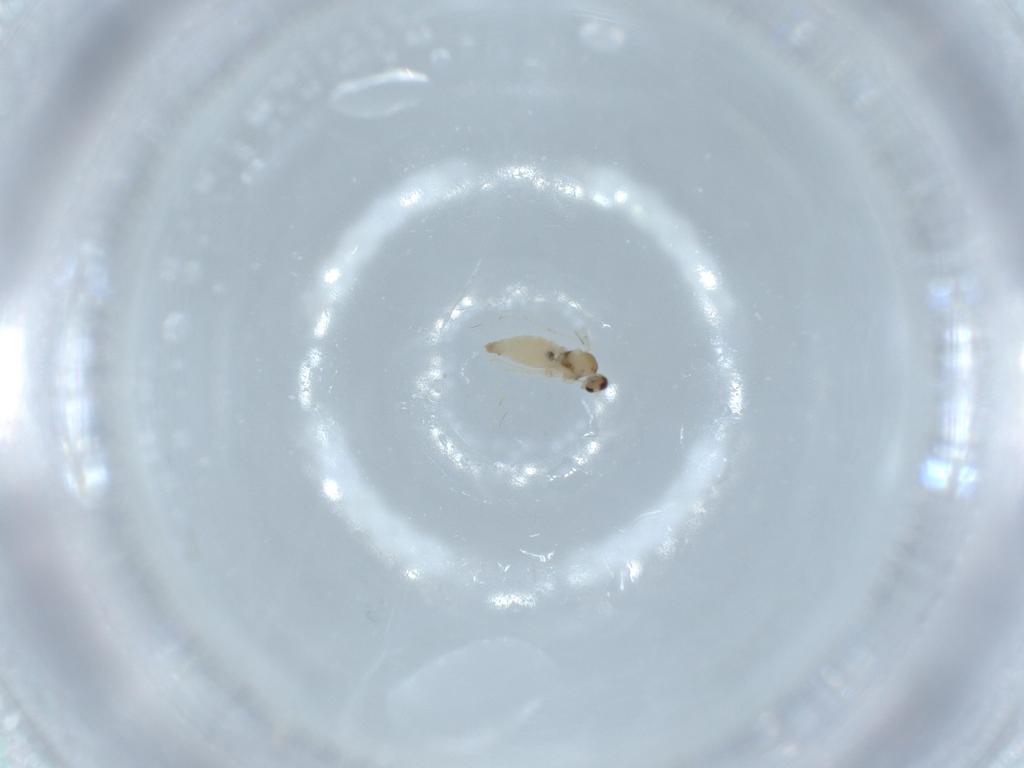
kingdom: Animalia
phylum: Arthropoda
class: Insecta
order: Diptera
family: Cecidomyiidae
